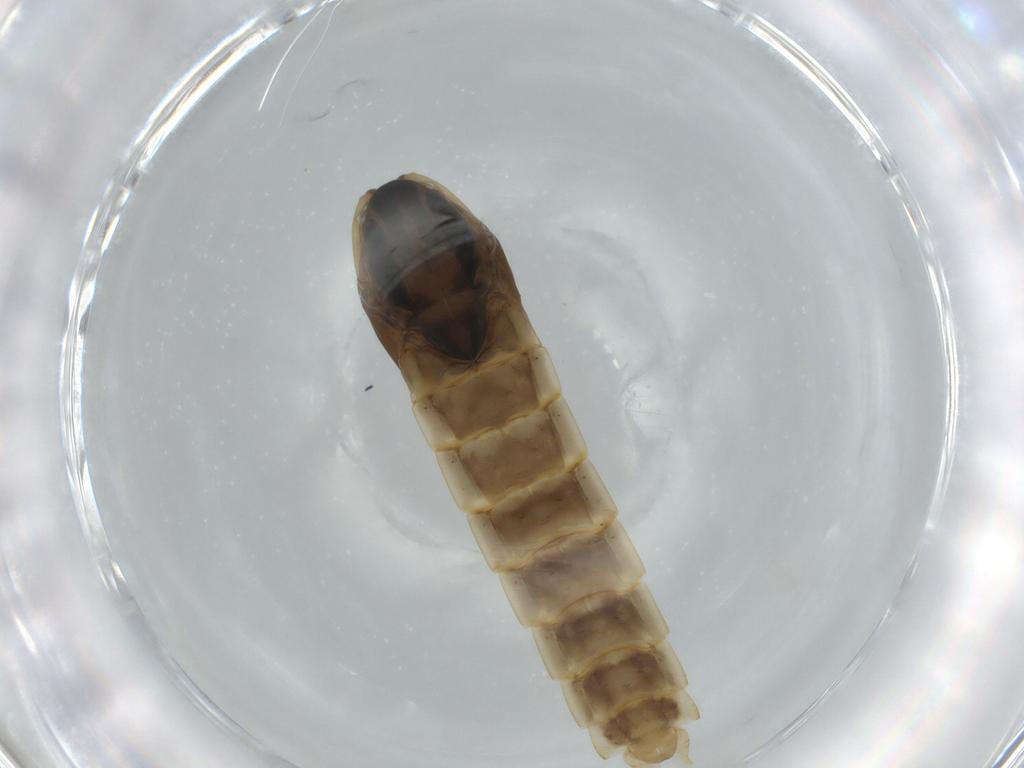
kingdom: Animalia
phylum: Arthropoda
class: Insecta
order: Diptera
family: Chironomidae
